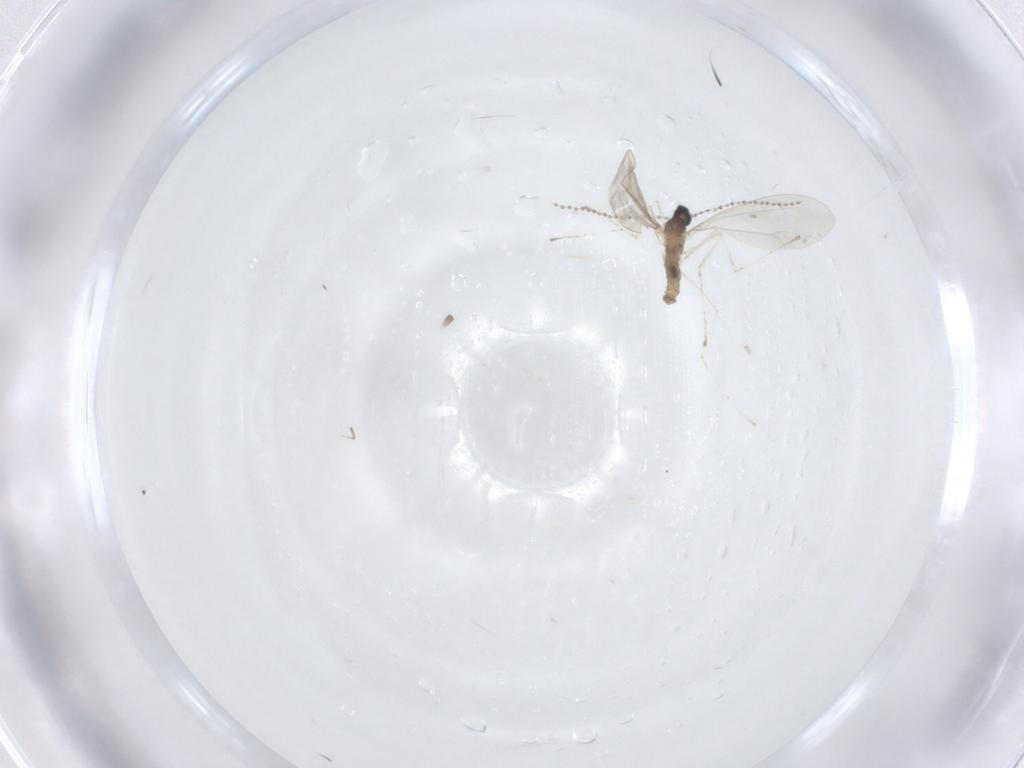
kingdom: Animalia
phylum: Arthropoda
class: Insecta
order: Diptera
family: Cecidomyiidae
